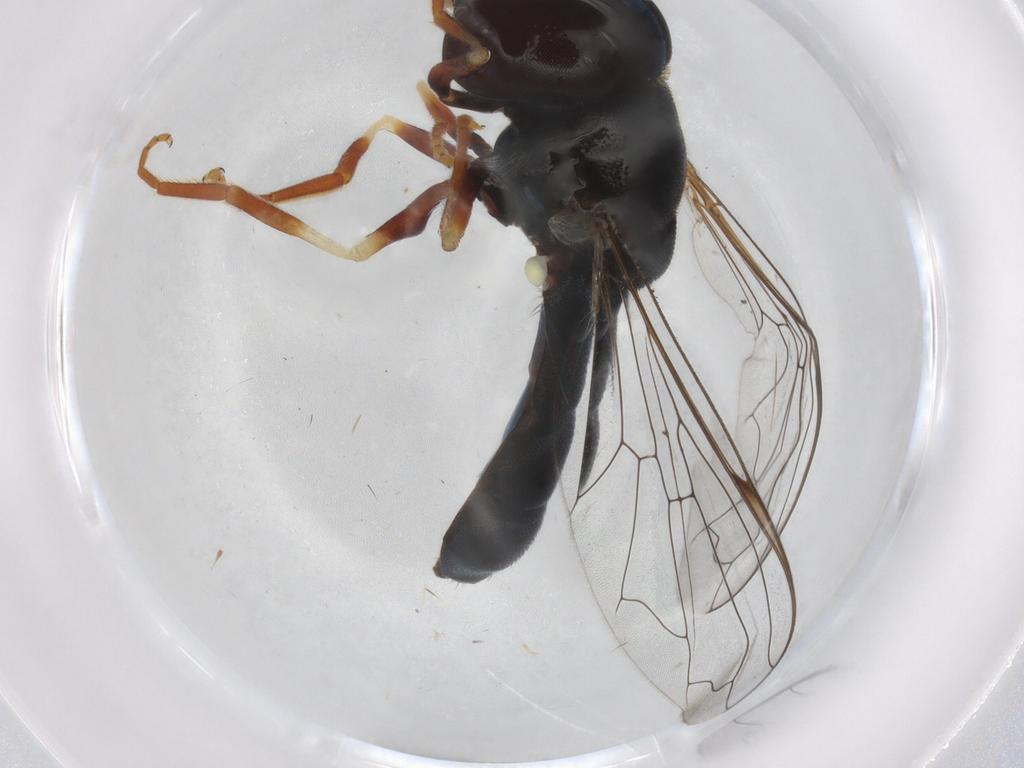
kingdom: Animalia
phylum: Arthropoda
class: Insecta
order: Diptera
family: Syrphidae
